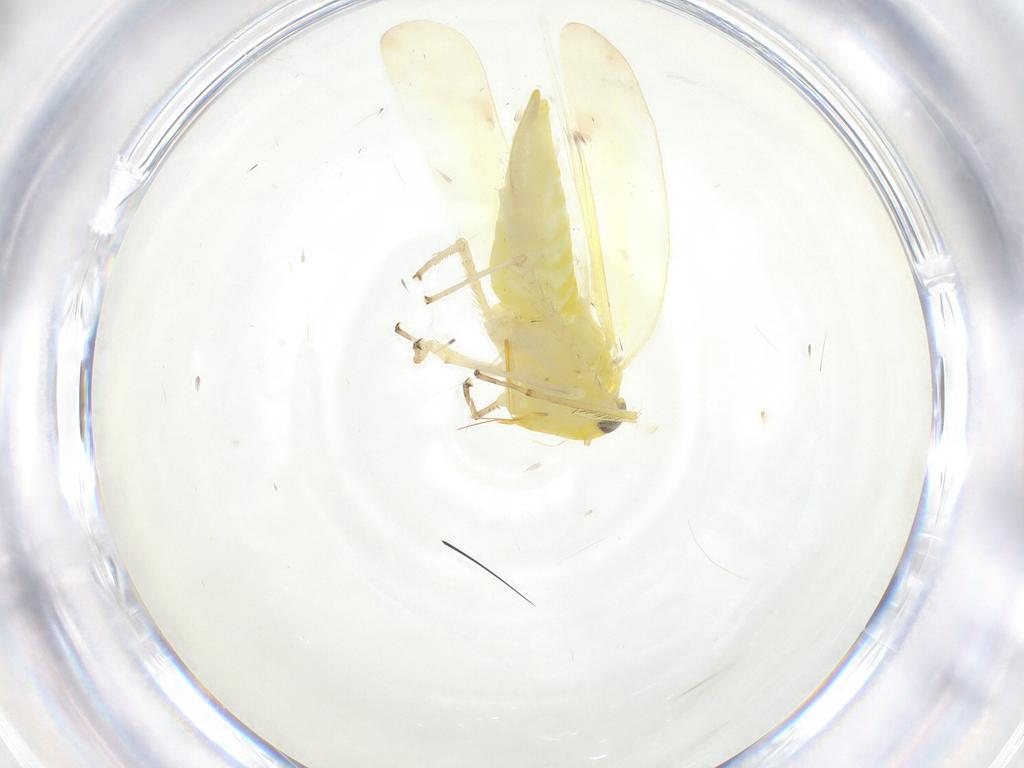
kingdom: Animalia
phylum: Arthropoda
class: Insecta
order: Hemiptera
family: Cicadellidae
